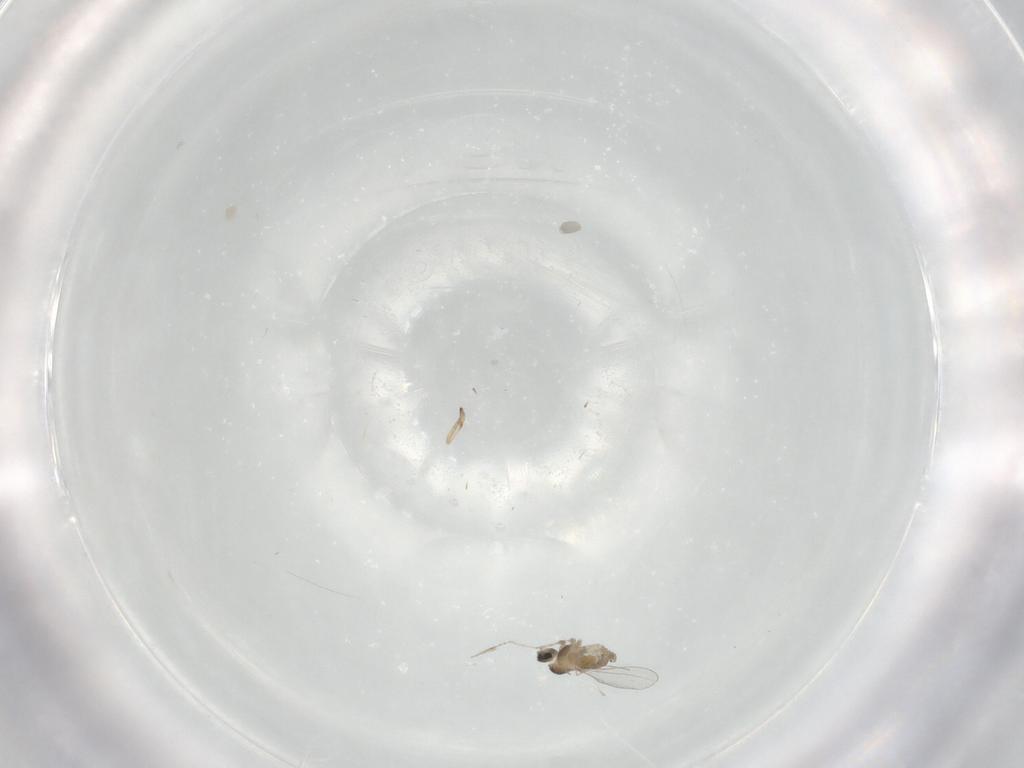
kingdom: Animalia
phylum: Arthropoda
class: Insecta
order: Diptera
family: Cecidomyiidae
